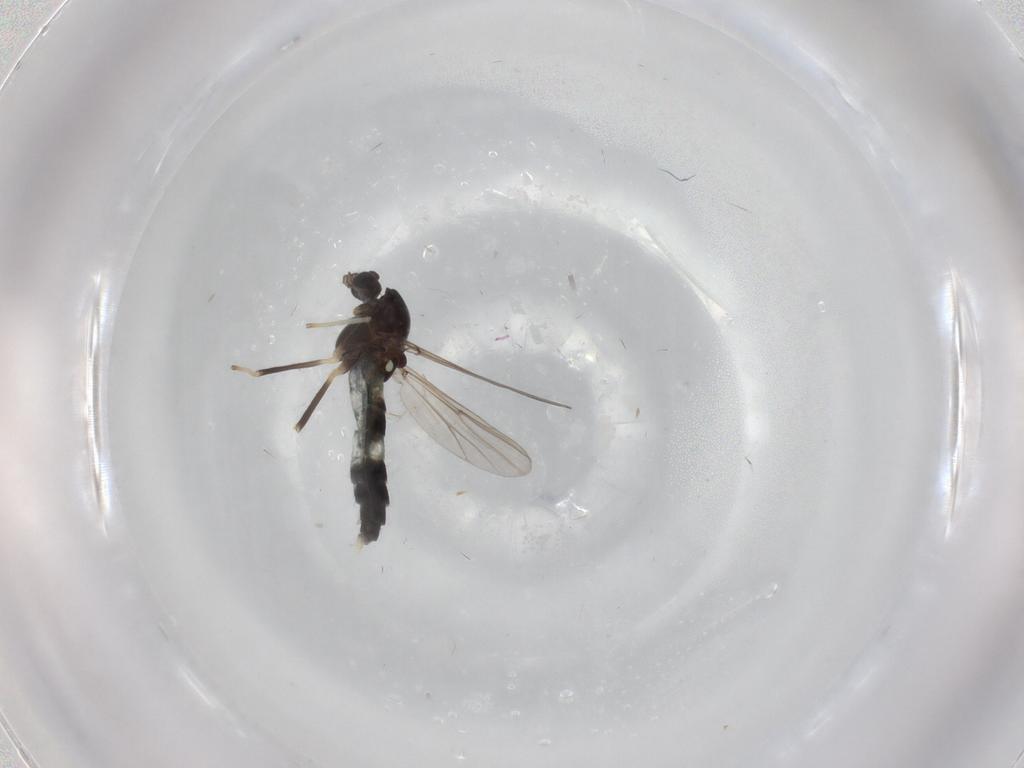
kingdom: Animalia
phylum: Arthropoda
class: Insecta
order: Diptera
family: Chironomidae
